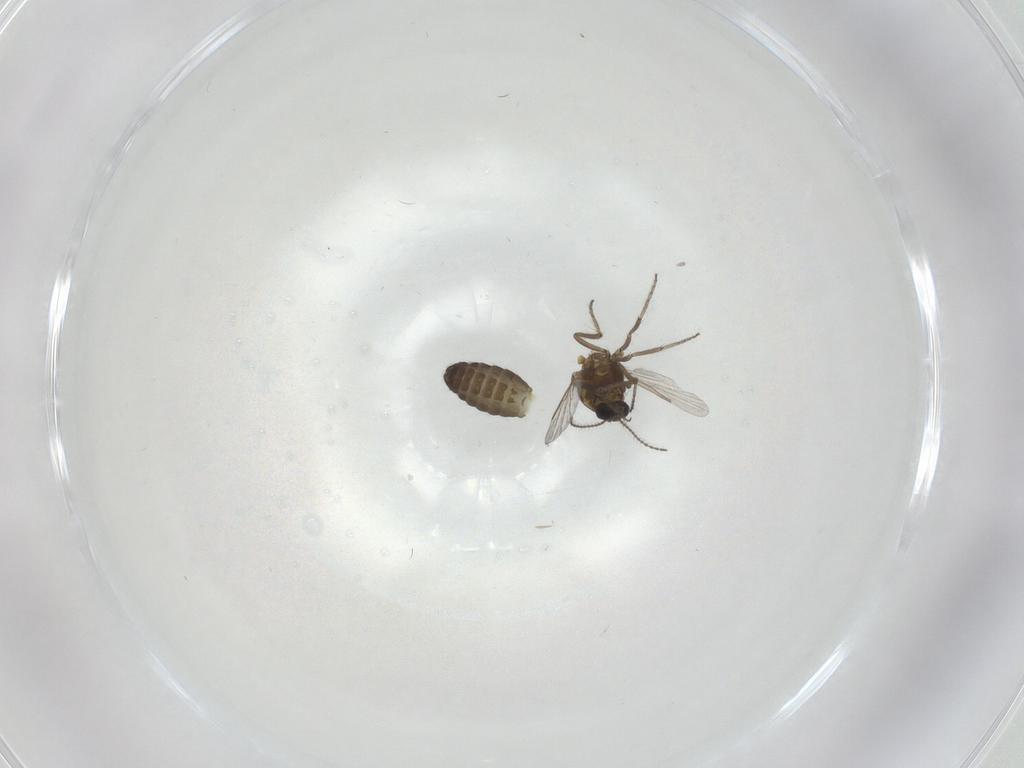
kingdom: Animalia
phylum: Arthropoda
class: Insecta
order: Diptera
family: Ceratopogonidae
